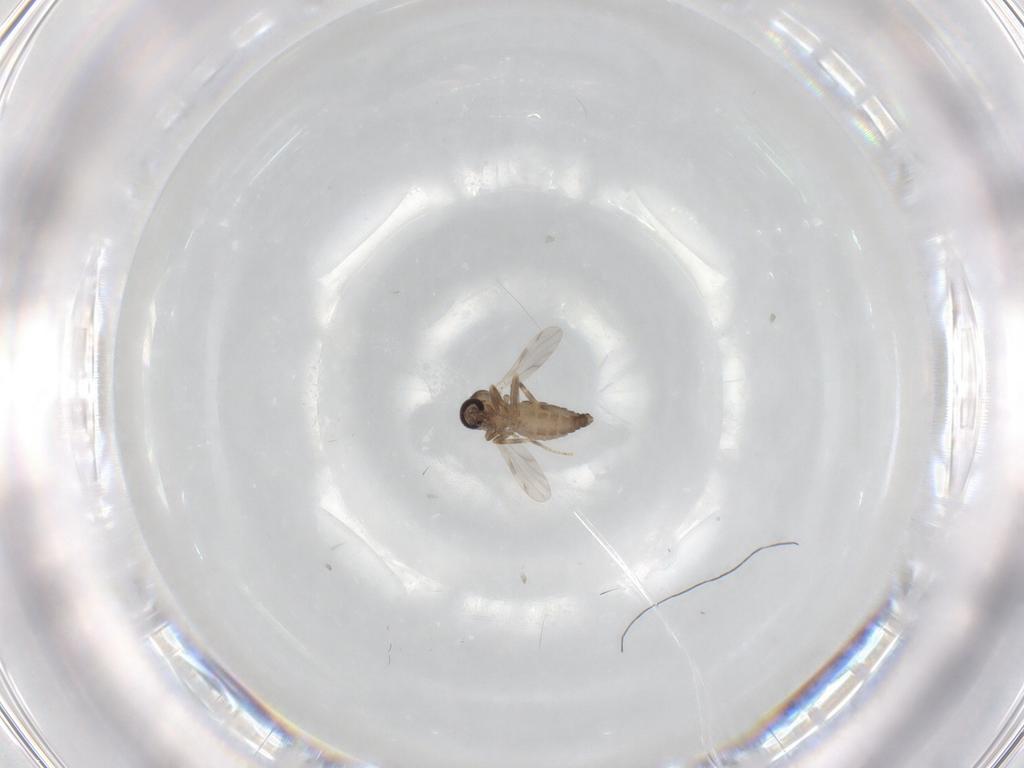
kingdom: Animalia
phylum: Arthropoda
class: Insecta
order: Diptera
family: Ceratopogonidae
